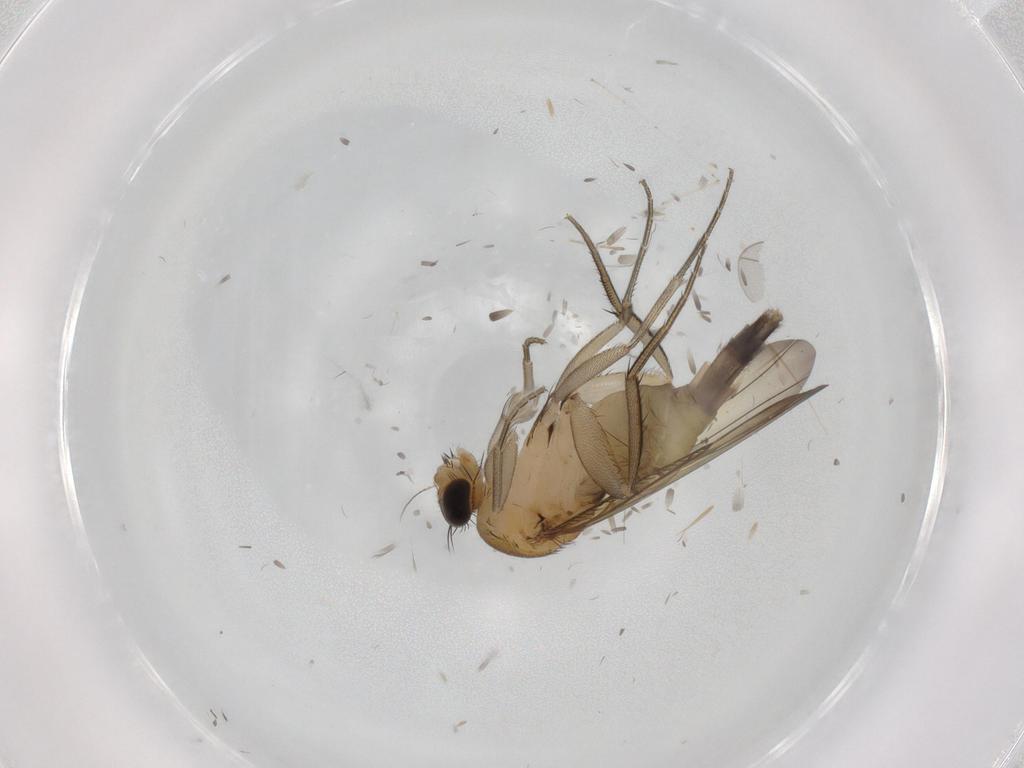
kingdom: Animalia
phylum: Arthropoda
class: Insecta
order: Diptera
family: Phoridae
